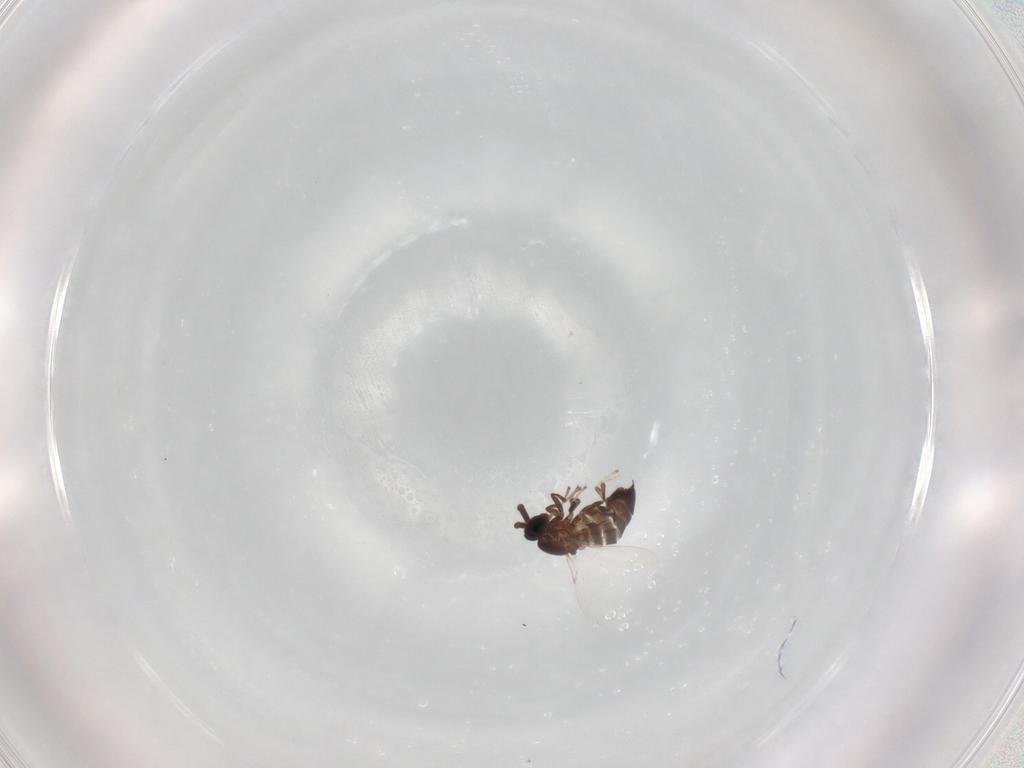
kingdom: Animalia
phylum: Arthropoda
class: Insecta
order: Diptera
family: Scatopsidae
